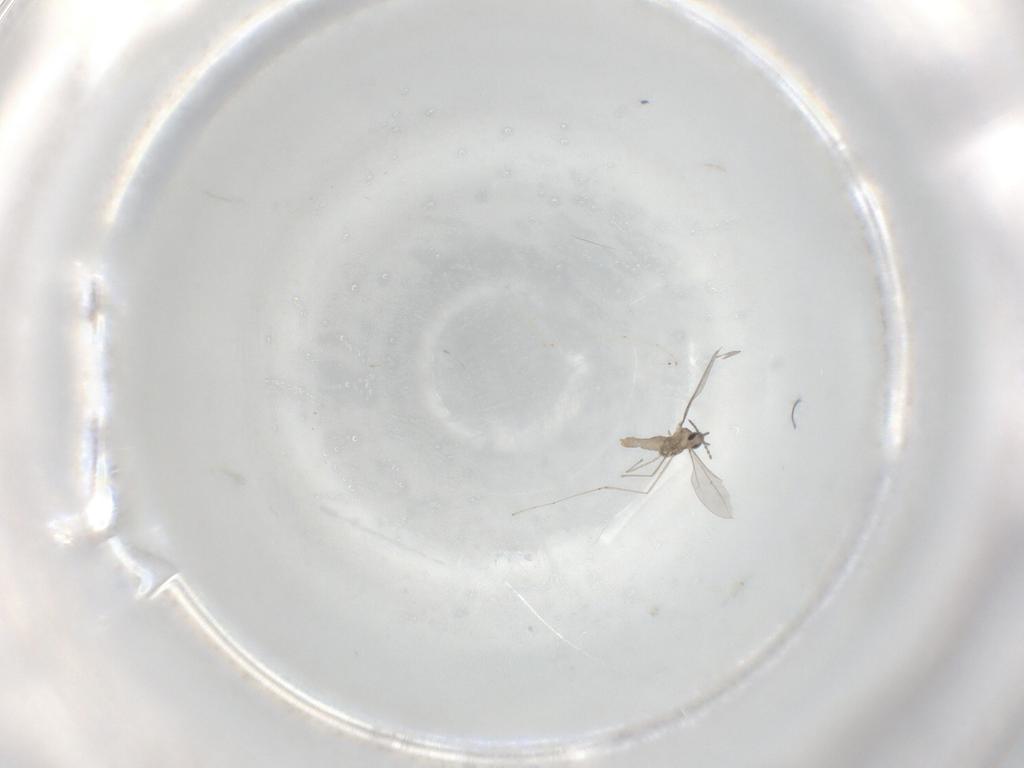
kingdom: Animalia
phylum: Arthropoda
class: Insecta
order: Diptera
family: Cecidomyiidae
